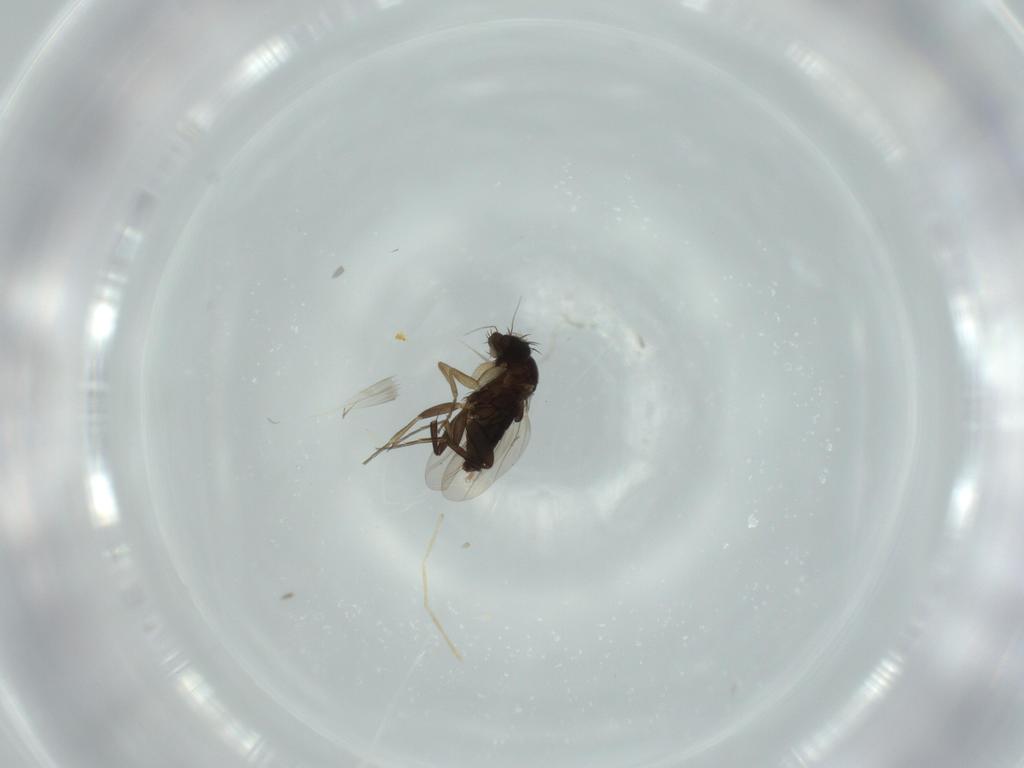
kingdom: Animalia
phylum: Arthropoda
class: Insecta
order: Diptera
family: Phoridae
